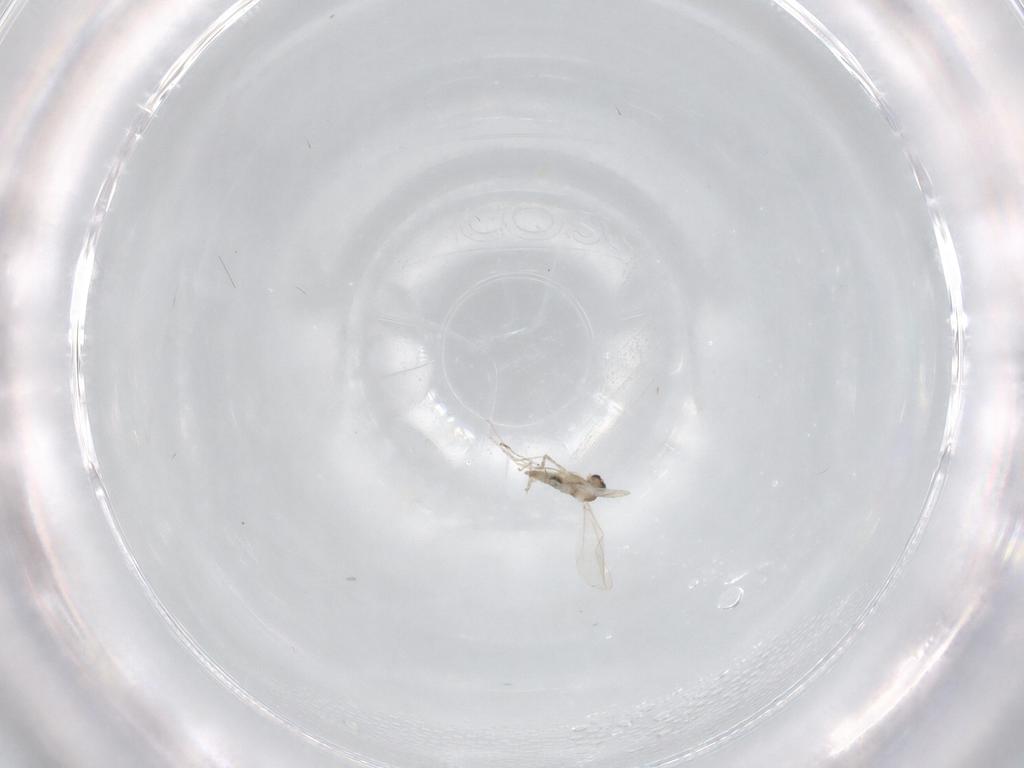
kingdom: Animalia
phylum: Arthropoda
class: Insecta
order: Diptera
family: Cecidomyiidae
